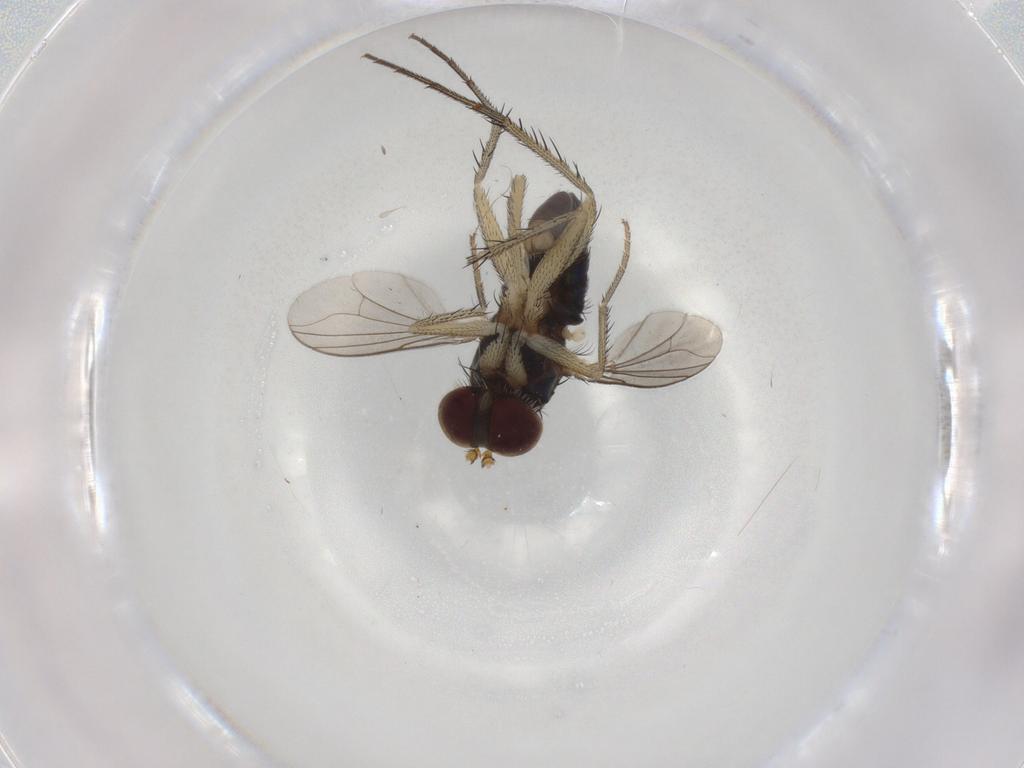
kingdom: Animalia
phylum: Arthropoda
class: Insecta
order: Diptera
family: Dolichopodidae
